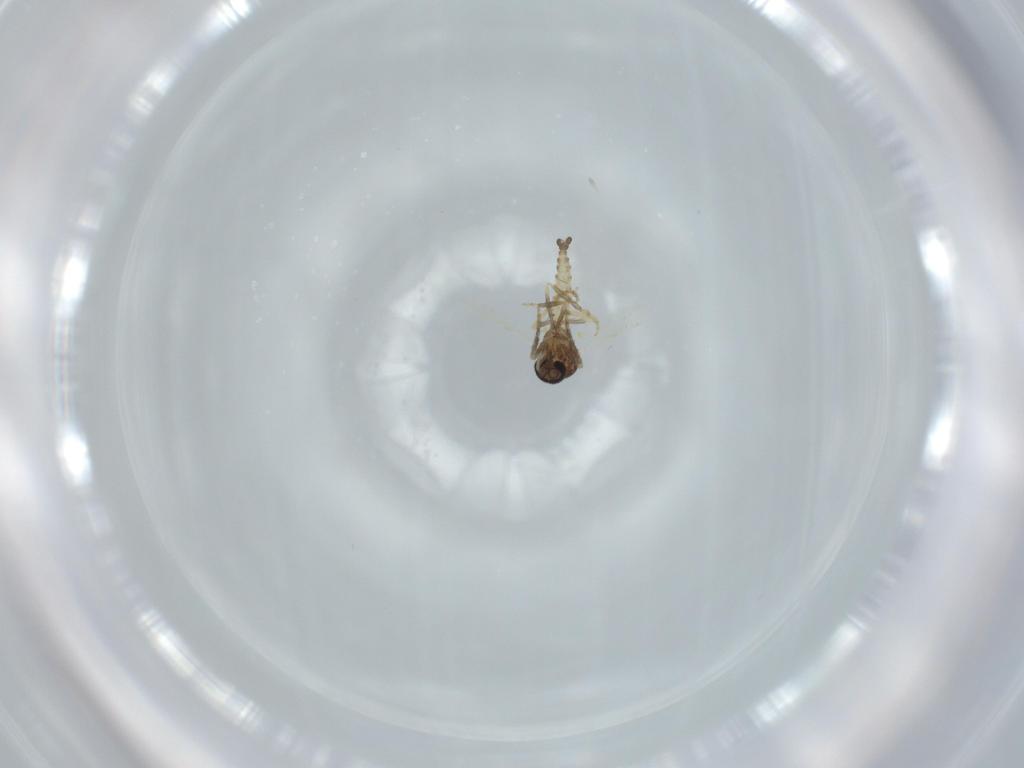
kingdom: Animalia
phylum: Arthropoda
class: Insecta
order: Diptera
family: Ceratopogonidae
